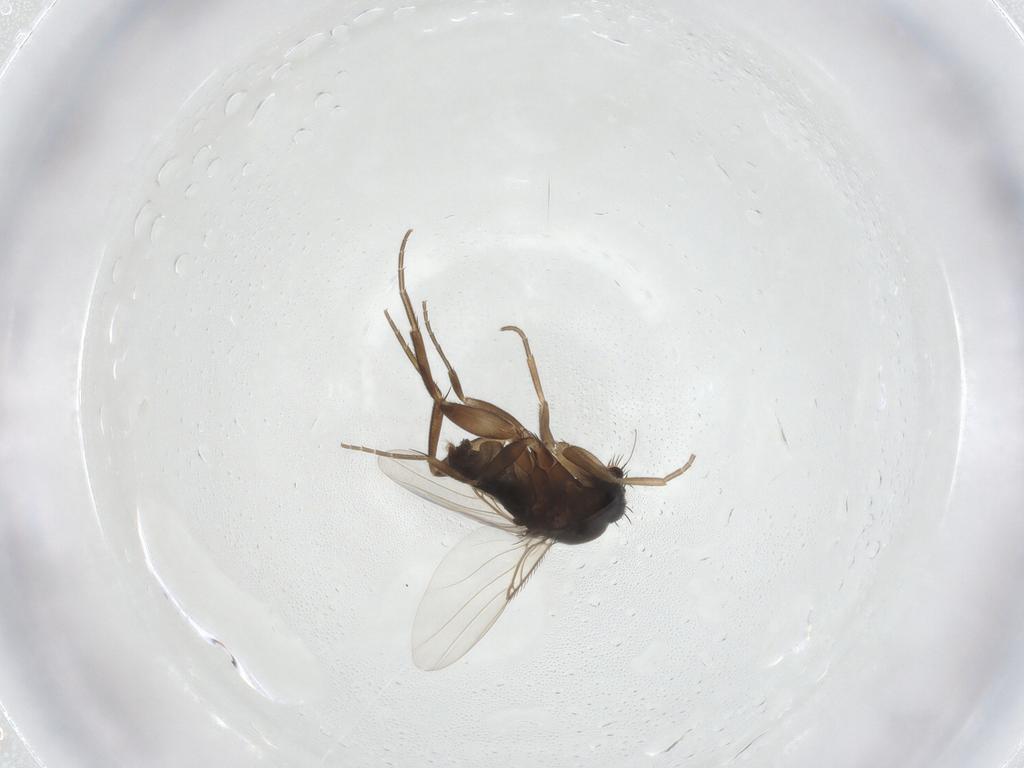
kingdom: Animalia
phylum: Arthropoda
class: Insecta
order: Diptera
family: Phoridae
